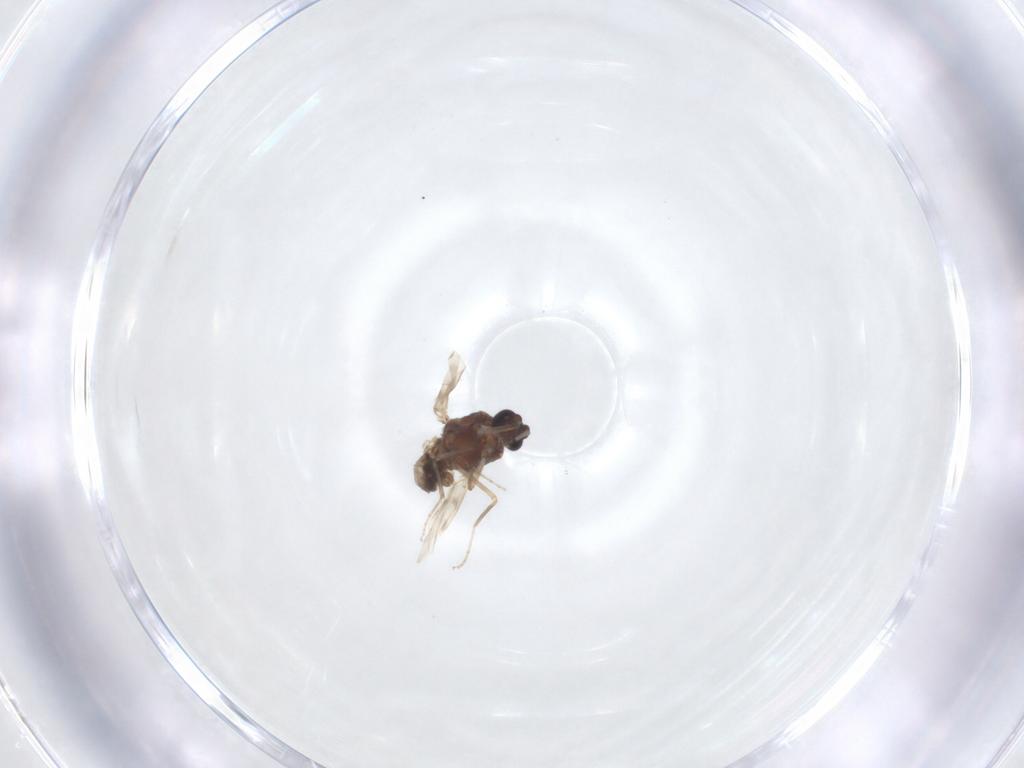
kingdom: Animalia
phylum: Arthropoda
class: Insecta
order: Diptera
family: Ceratopogonidae
